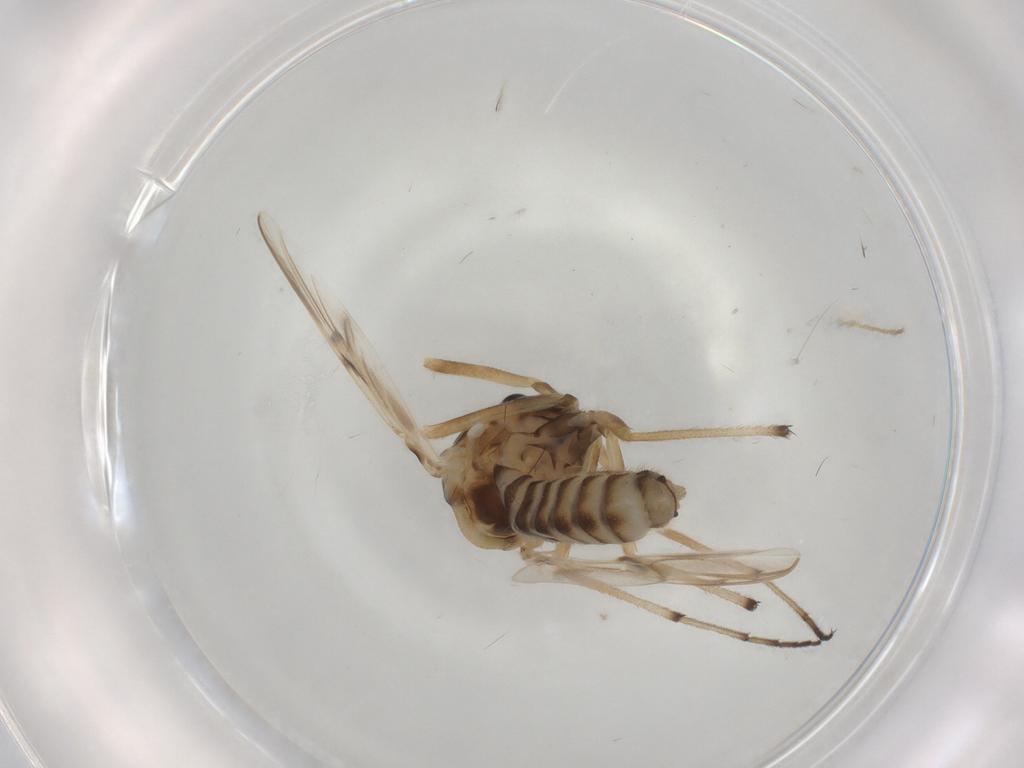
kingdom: Animalia
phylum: Arthropoda
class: Insecta
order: Diptera
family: Chironomidae
